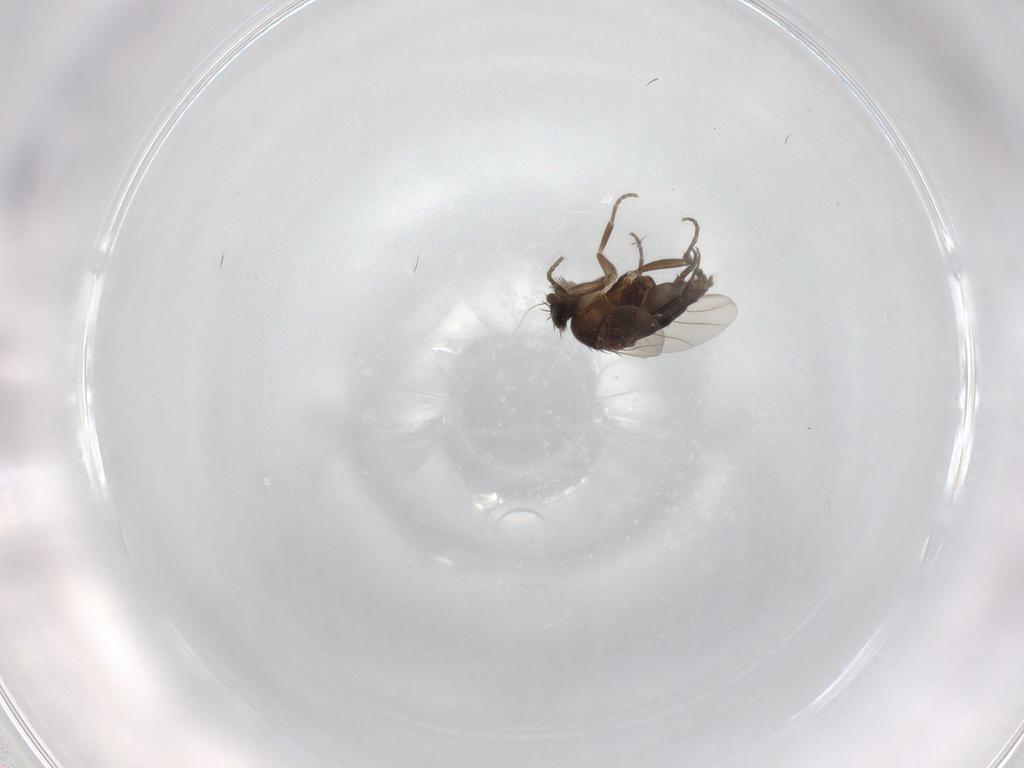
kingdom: Animalia
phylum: Arthropoda
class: Insecta
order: Diptera
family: Phoridae
